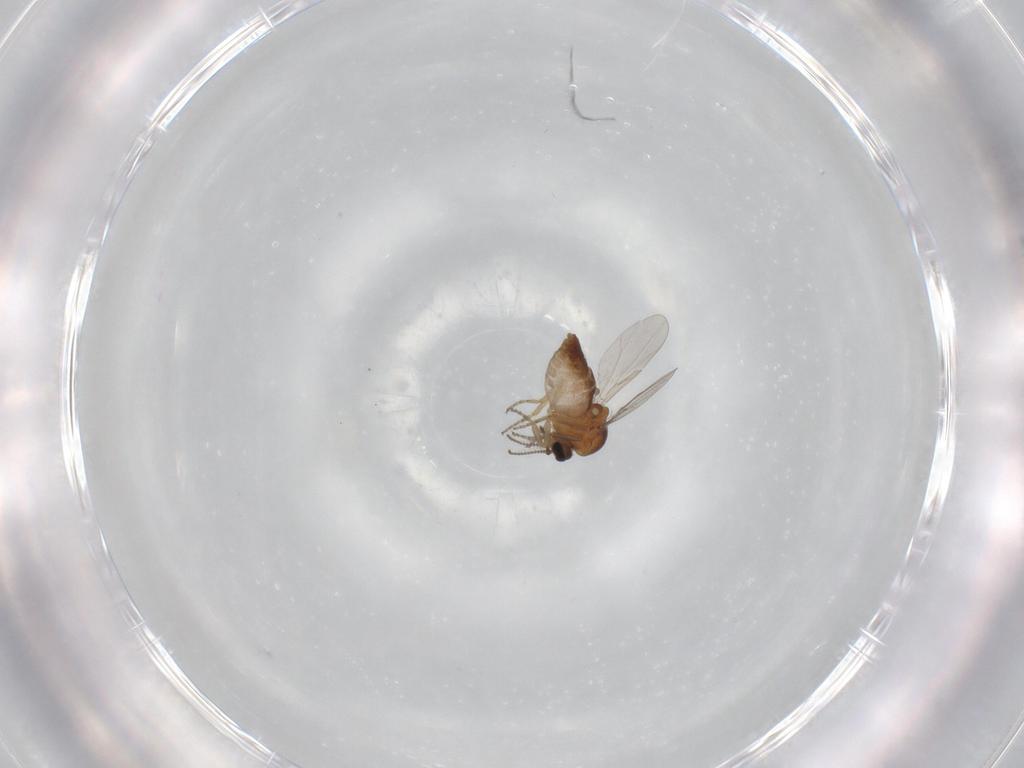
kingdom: Animalia
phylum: Arthropoda
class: Insecta
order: Diptera
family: Ceratopogonidae
